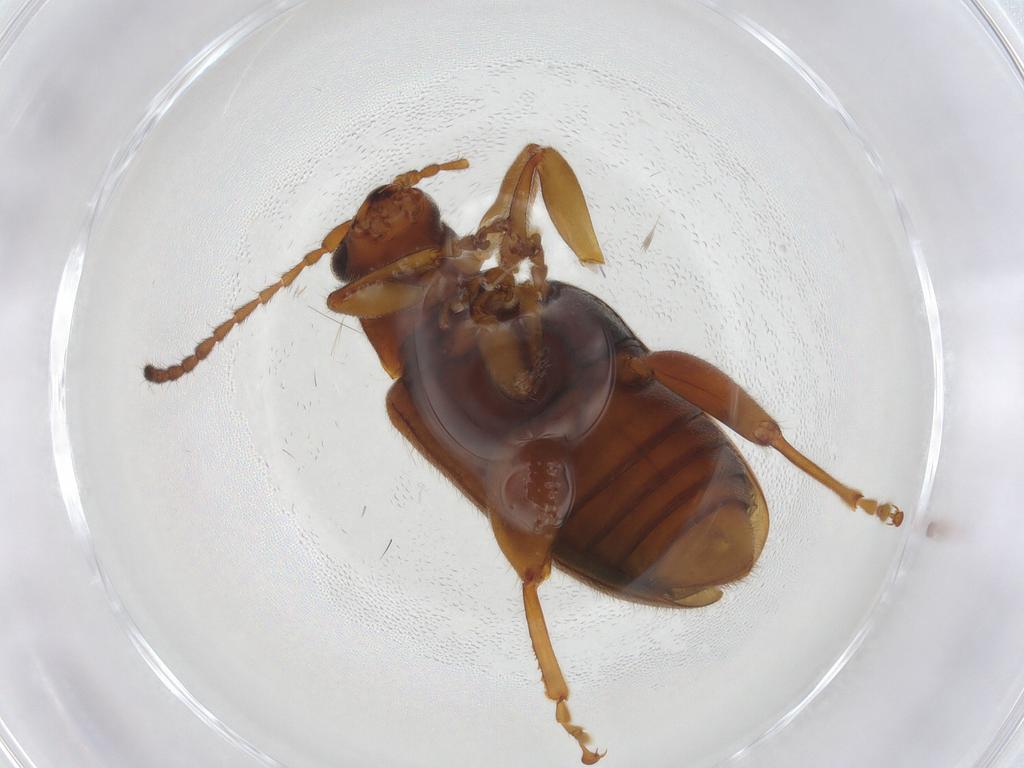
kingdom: Animalia
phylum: Arthropoda
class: Insecta
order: Coleoptera
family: Chrysomelidae
